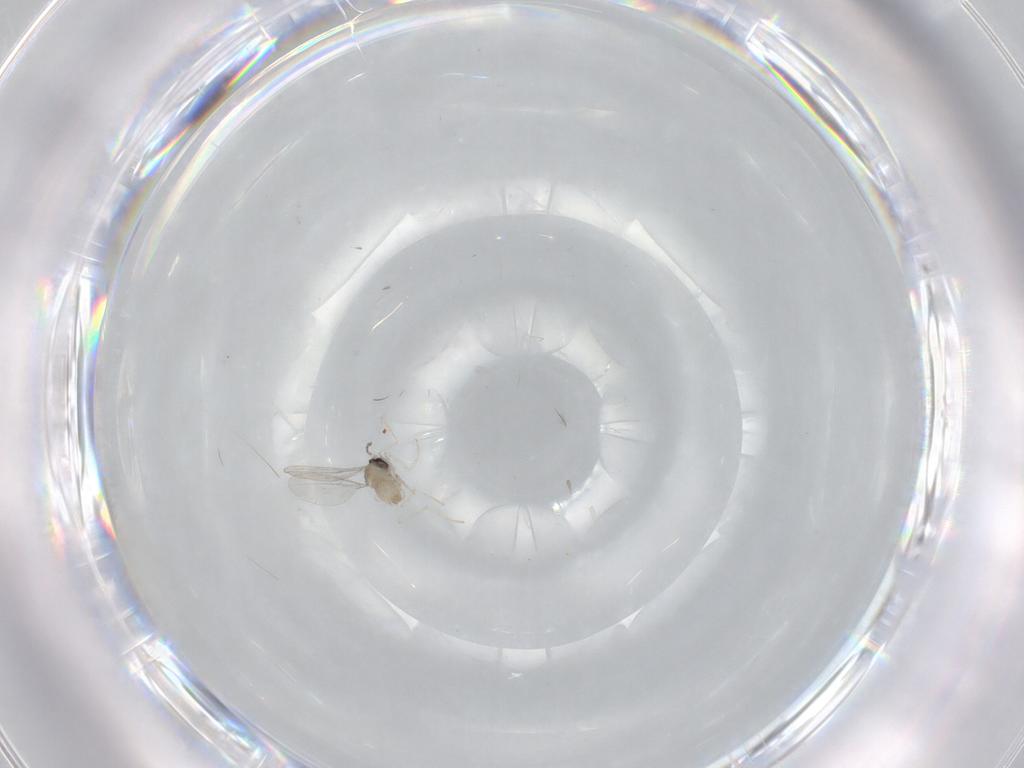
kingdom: Animalia
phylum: Arthropoda
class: Insecta
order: Diptera
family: Cecidomyiidae
